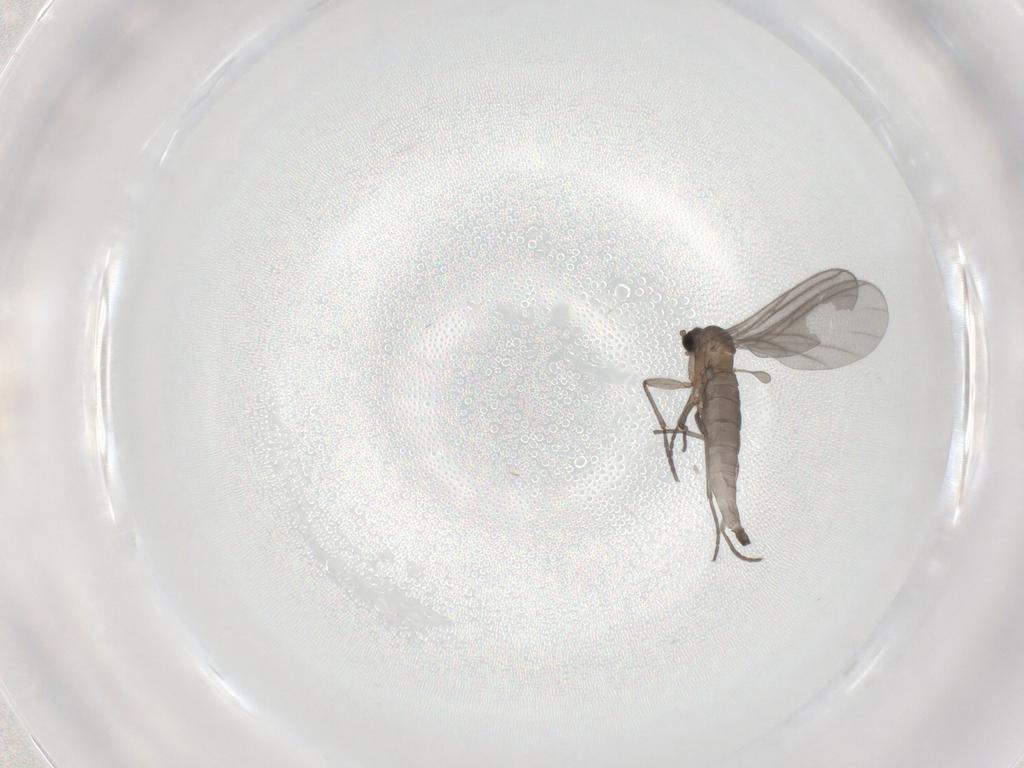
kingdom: Animalia
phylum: Arthropoda
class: Insecta
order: Diptera
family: Sciaridae
